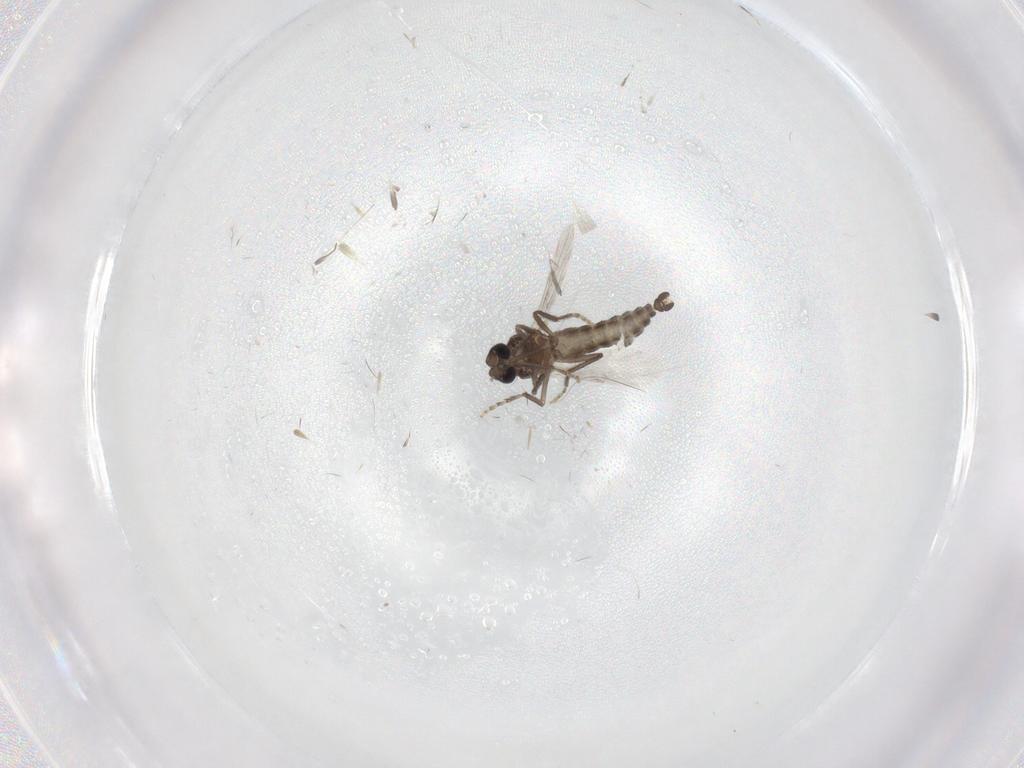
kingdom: Animalia
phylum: Arthropoda
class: Insecta
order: Diptera
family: Ceratopogonidae
